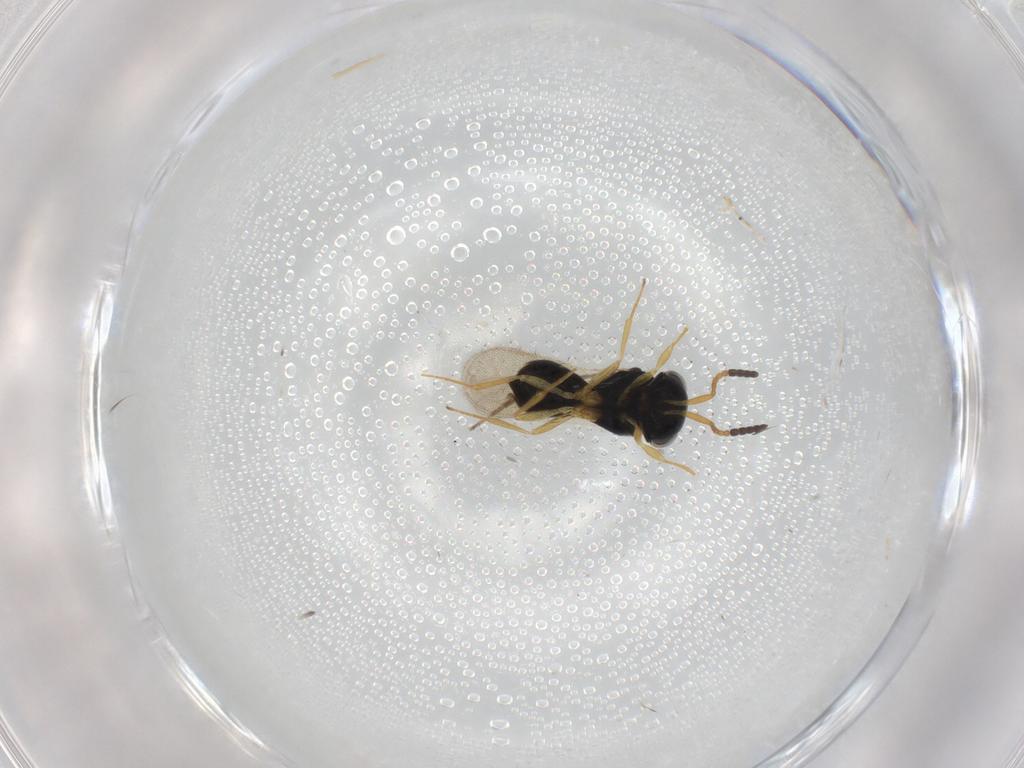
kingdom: Animalia
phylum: Arthropoda
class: Insecta
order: Hymenoptera
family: Scelionidae
